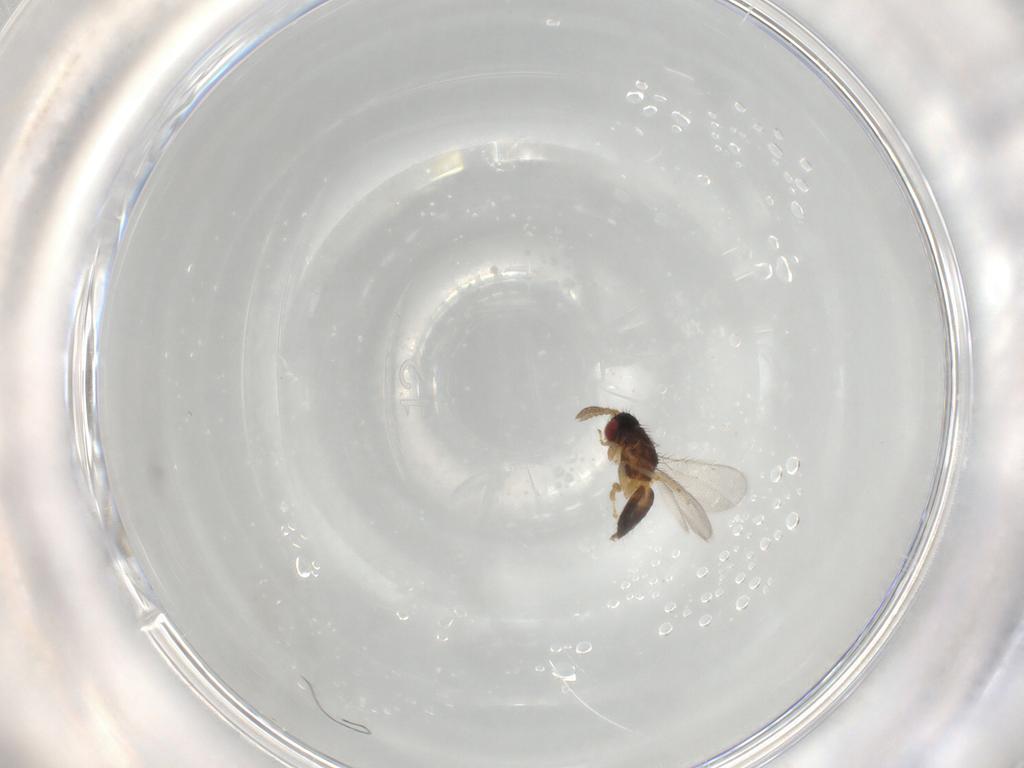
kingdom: Animalia
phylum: Arthropoda
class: Insecta
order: Hymenoptera
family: Eulophidae
